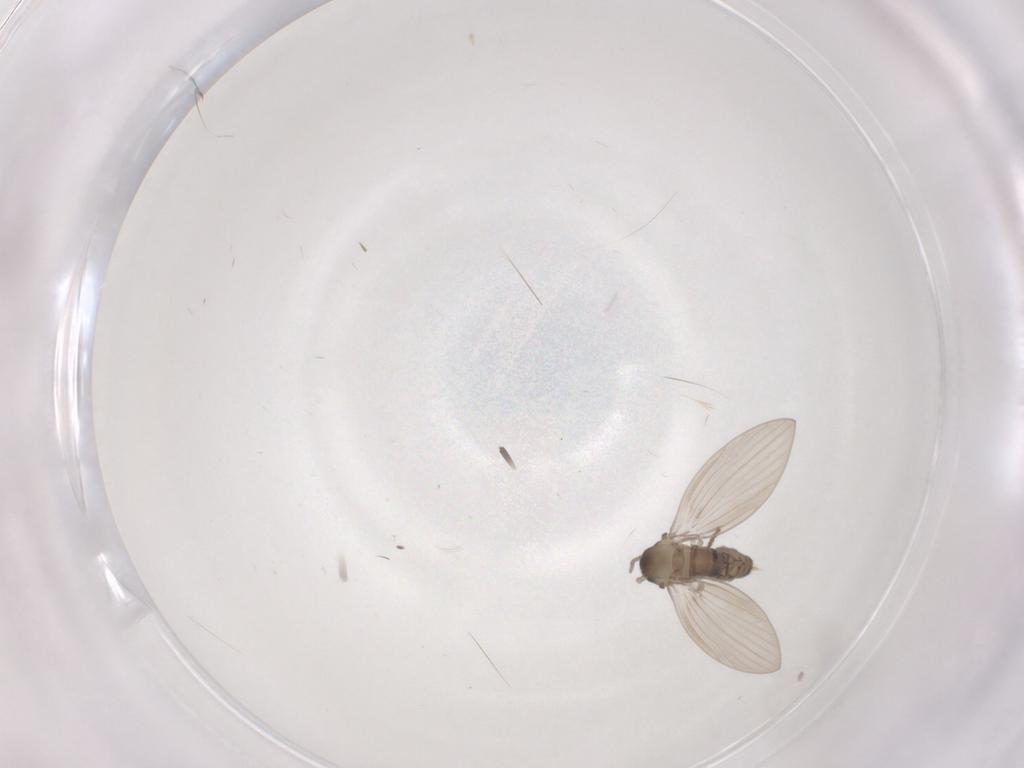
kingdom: Animalia
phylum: Arthropoda
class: Insecta
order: Diptera
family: Psychodidae
